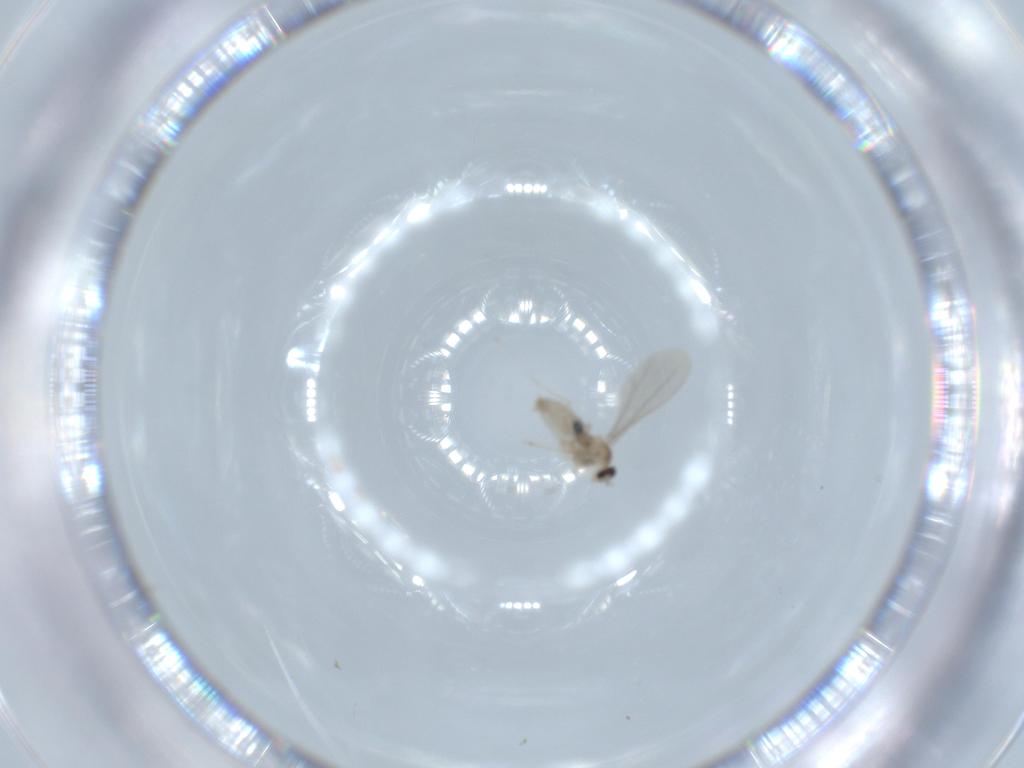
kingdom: Animalia
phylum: Arthropoda
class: Insecta
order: Diptera
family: Cecidomyiidae
